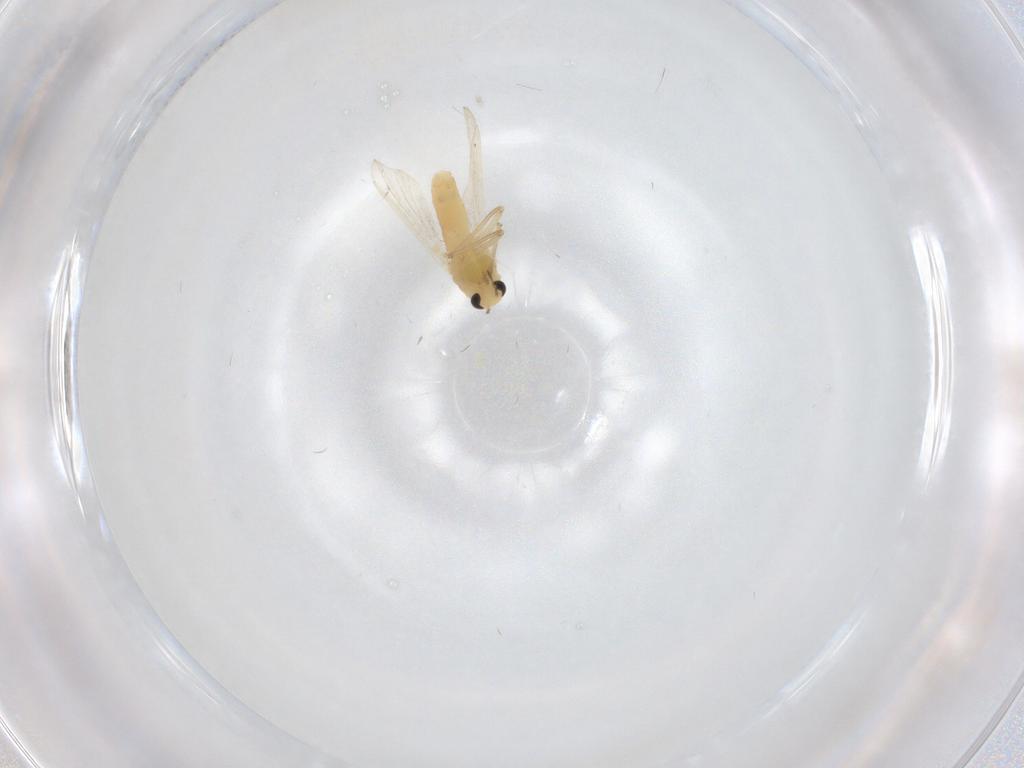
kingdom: Animalia
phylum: Arthropoda
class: Insecta
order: Diptera
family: Chironomidae
